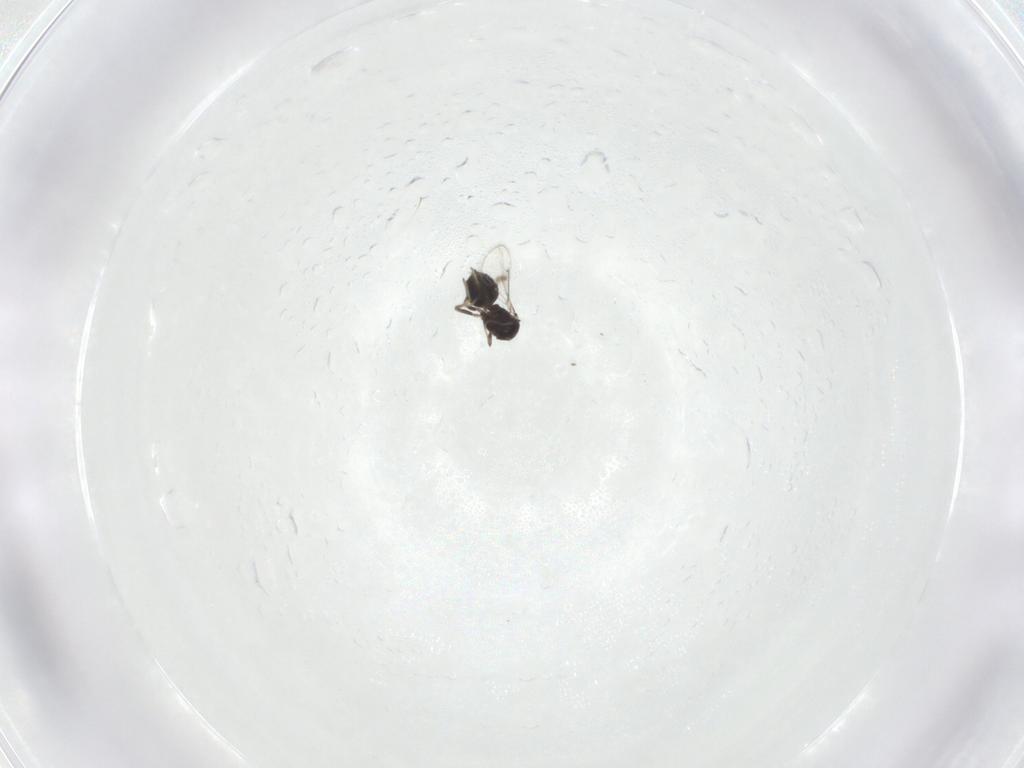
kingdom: Animalia
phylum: Arthropoda
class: Insecta
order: Hymenoptera
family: Eulophidae
